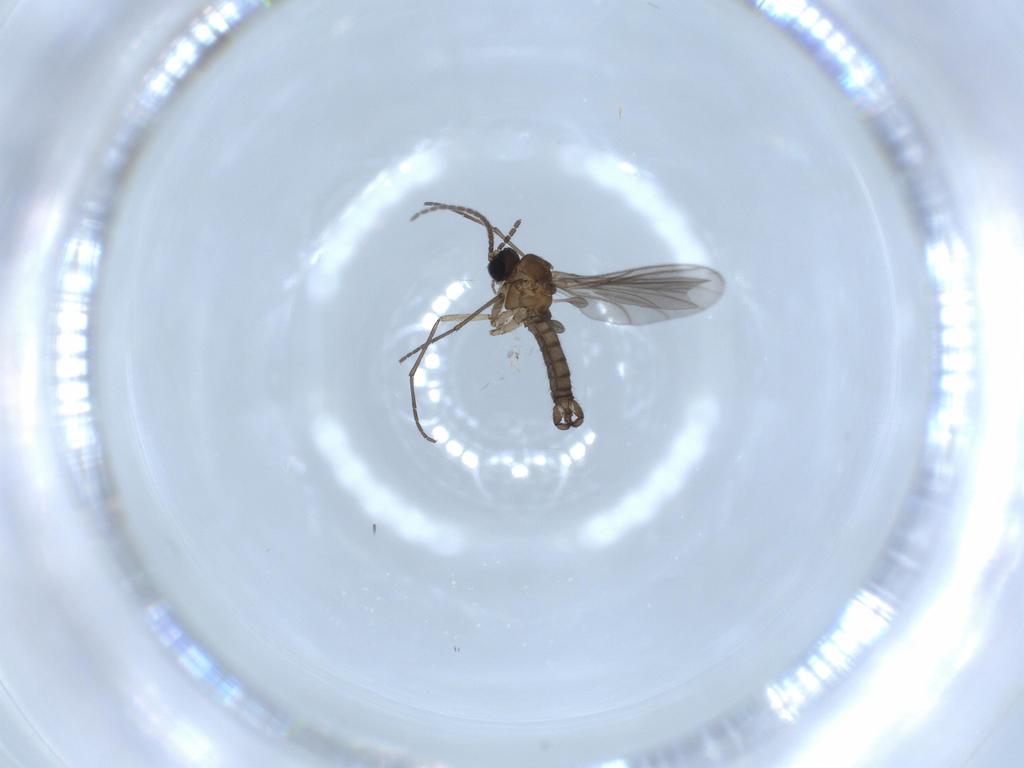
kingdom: Animalia
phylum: Arthropoda
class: Insecta
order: Diptera
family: Sciaridae
